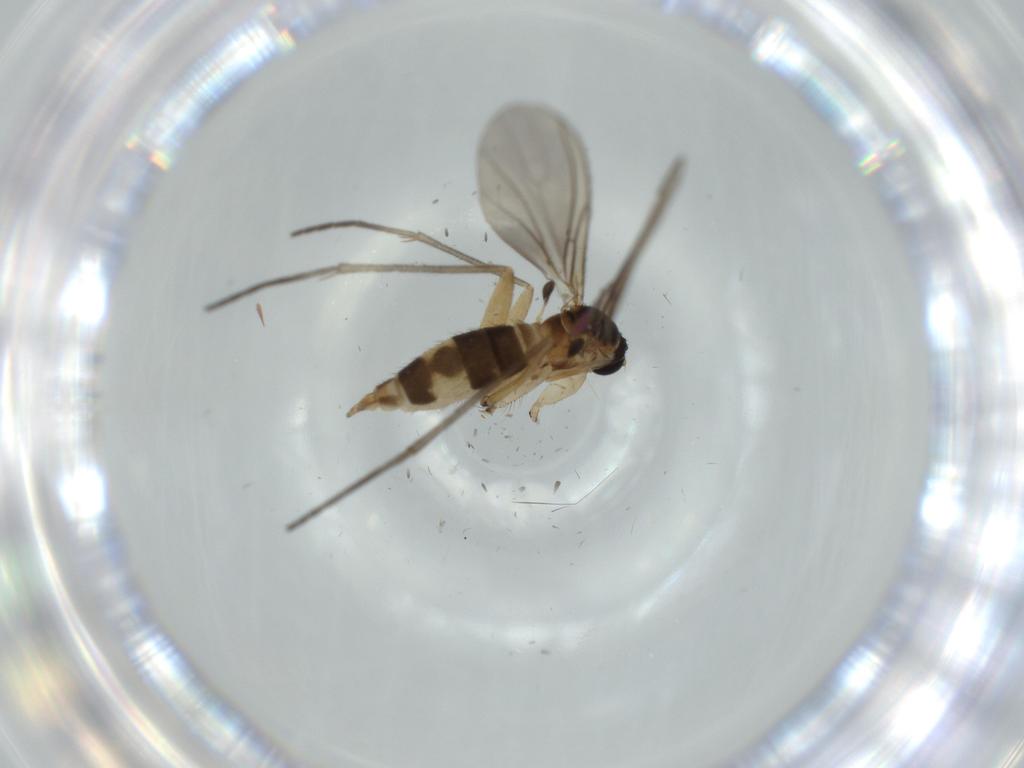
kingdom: Animalia
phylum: Arthropoda
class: Insecta
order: Diptera
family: Sciaridae
